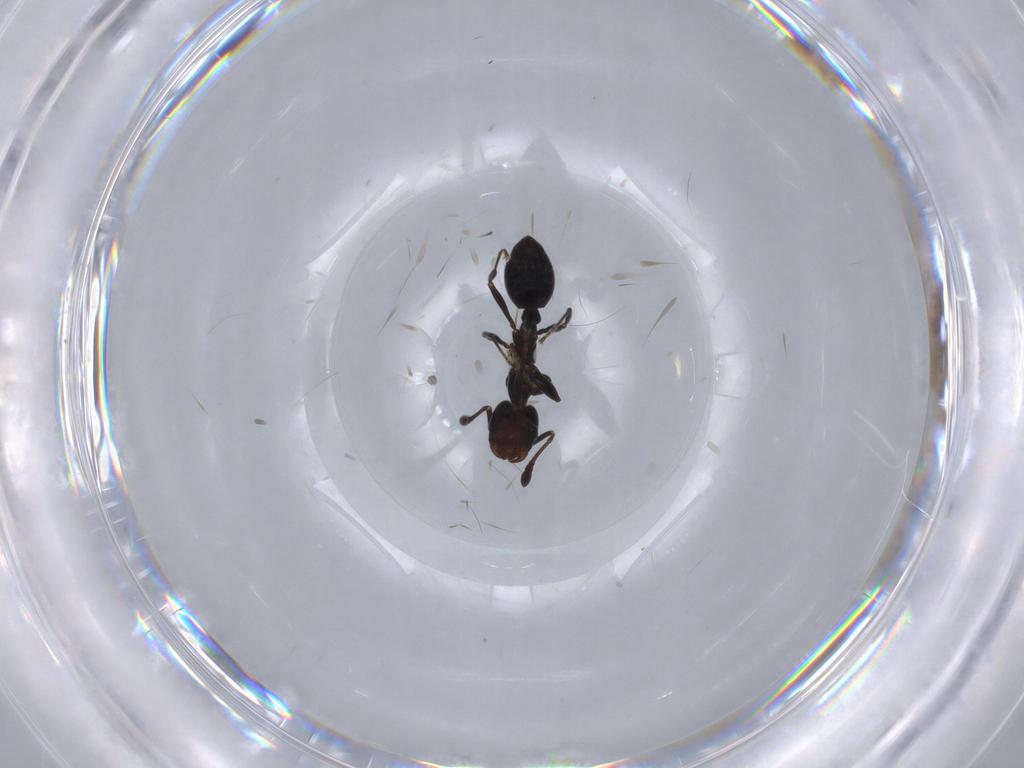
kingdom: Animalia
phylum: Arthropoda
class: Insecta
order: Hymenoptera
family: Formicidae
